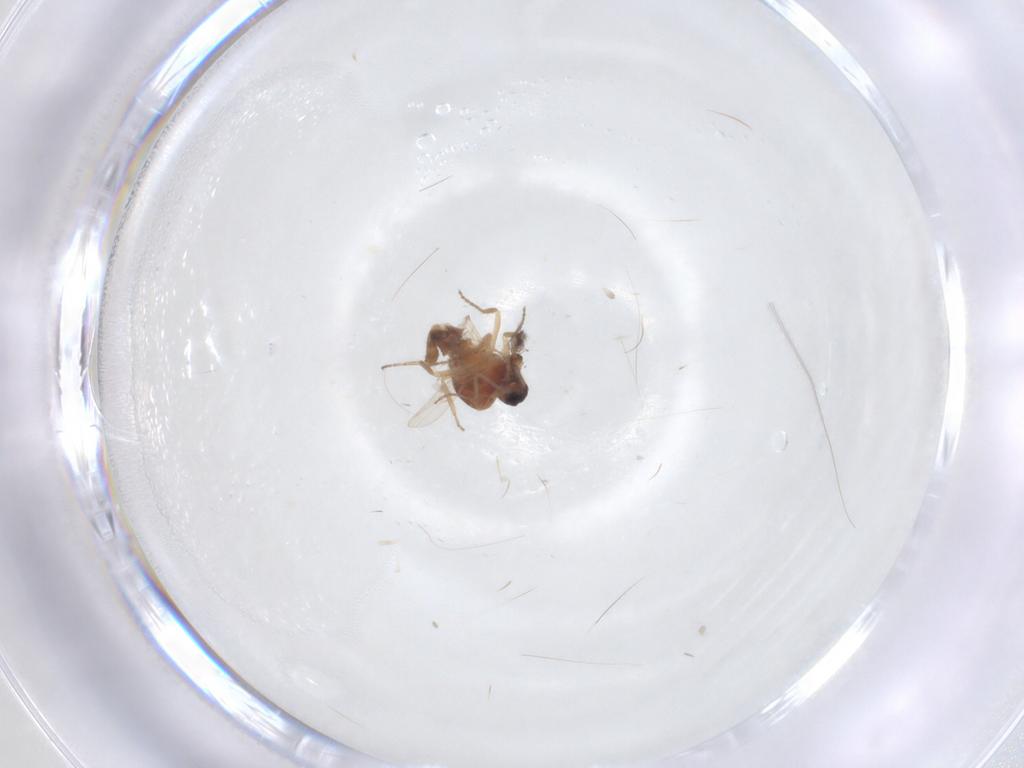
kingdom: Animalia
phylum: Arthropoda
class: Insecta
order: Diptera
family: Ceratopogonidae
